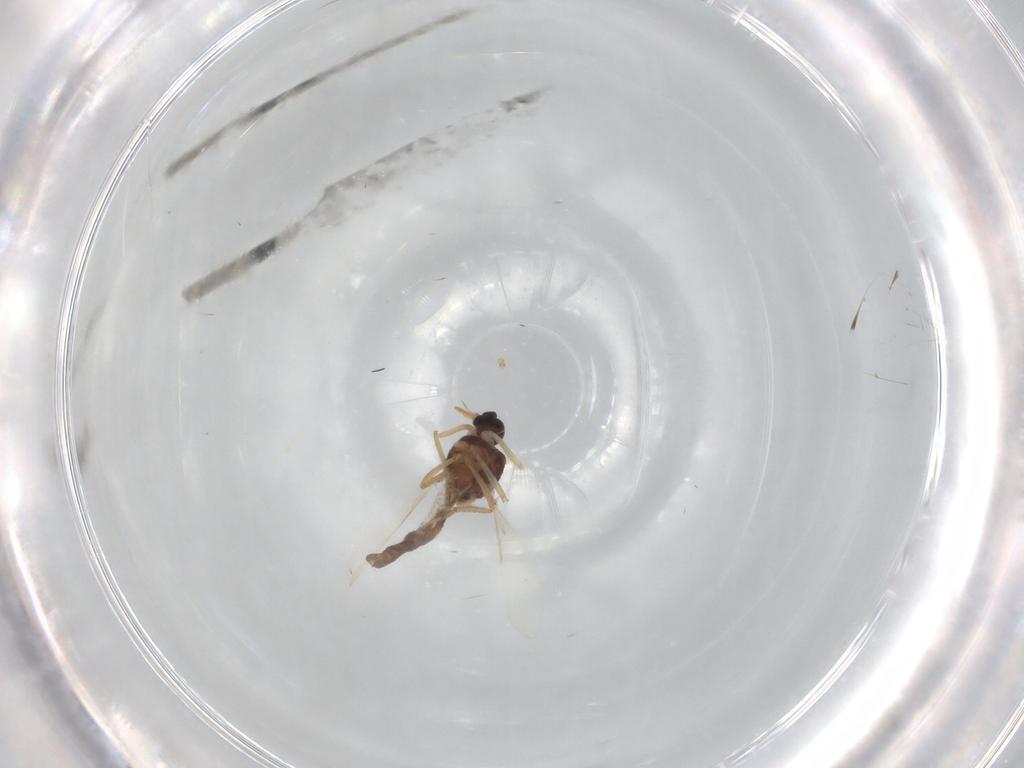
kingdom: Animalia
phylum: Arthropoda
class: Insecta
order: Diptera
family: Ceratopogonidae
